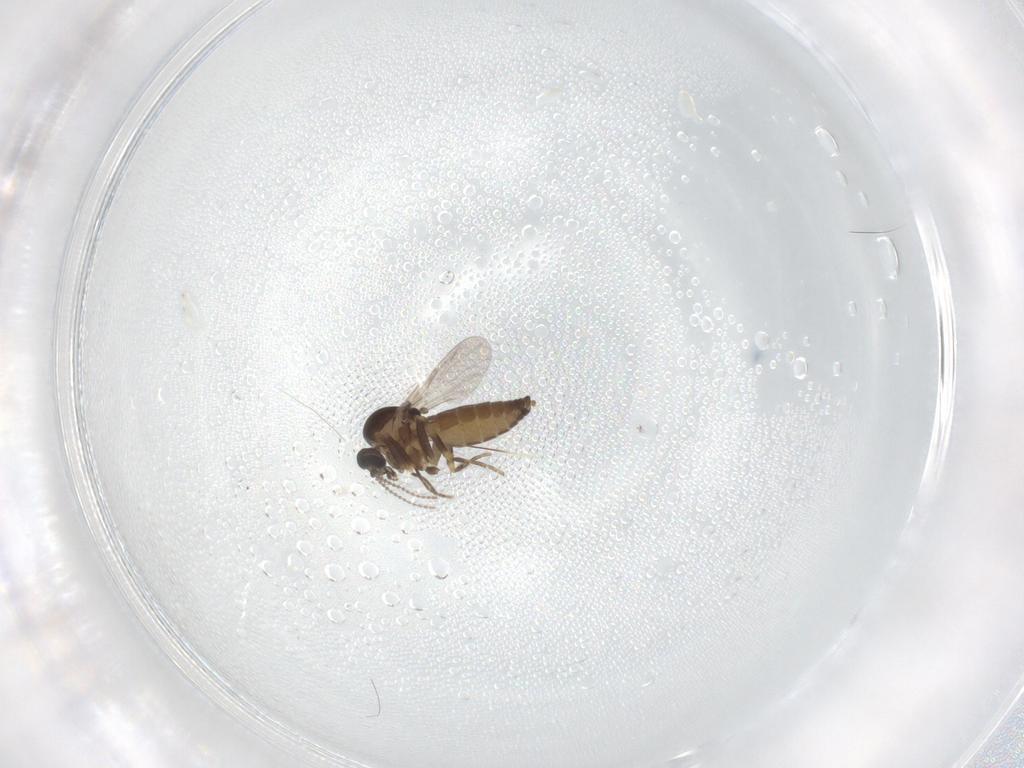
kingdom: Animalia
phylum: Arthropoda
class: Insecta
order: Diptera
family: Ceratopogonidae
